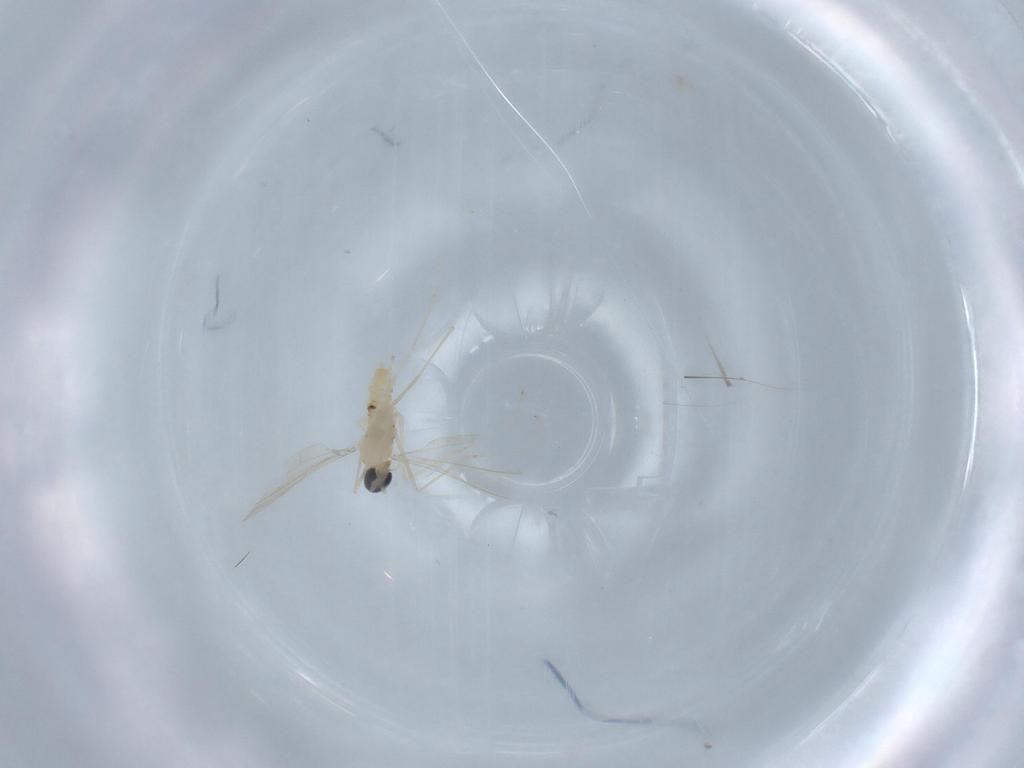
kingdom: Animalia
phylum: Arthropoda
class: Insecta
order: Diptera
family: Cecidomyiidae
